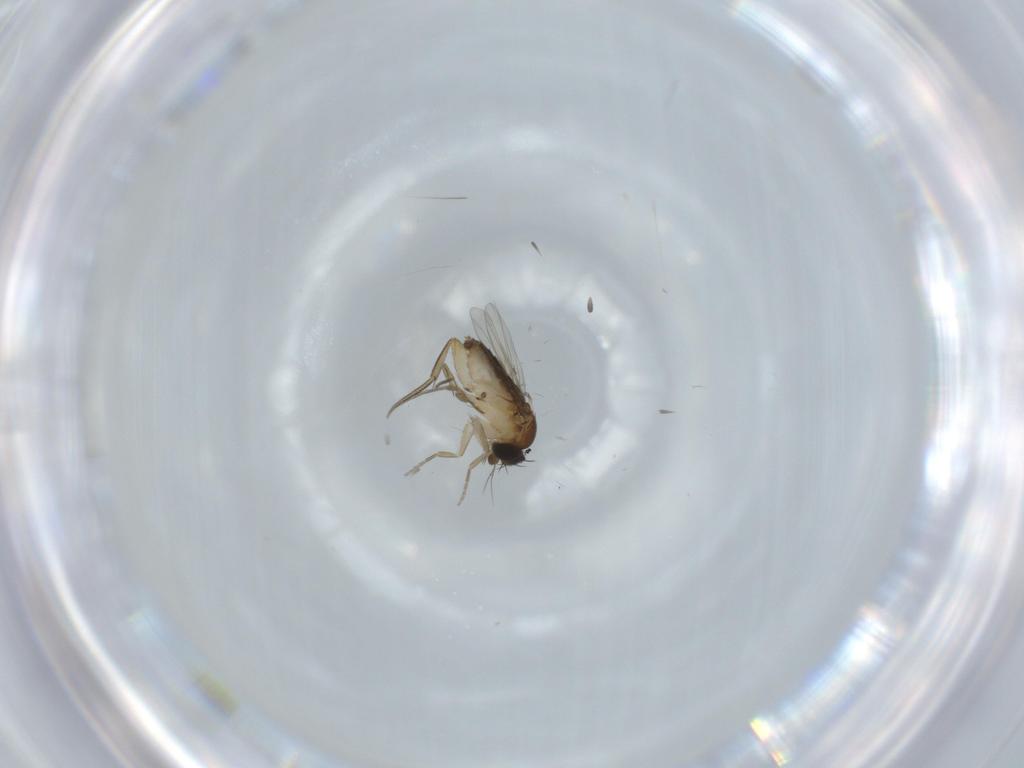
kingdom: Animalia
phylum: Arthropoda
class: Insecta
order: Diptera
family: Phoridae
